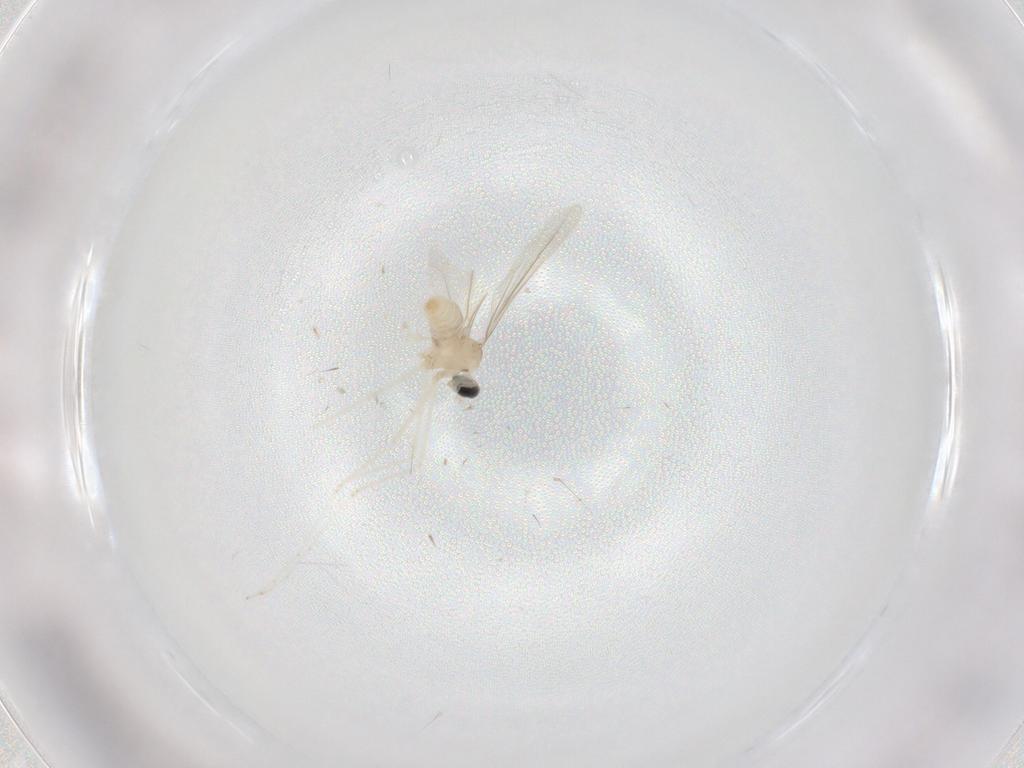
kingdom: Animalia
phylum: Arthropoda
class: Insecta
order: Diptera
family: Cecidomyiidae
